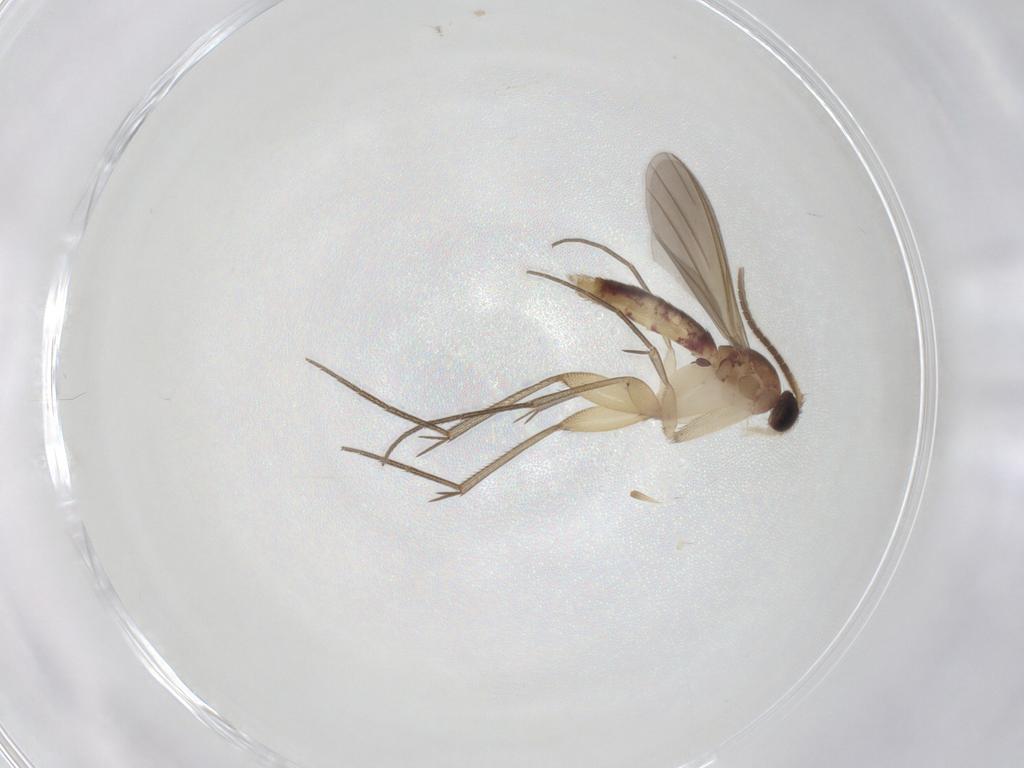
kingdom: Animalia
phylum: Arthropoda
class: Insecta
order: Diptera
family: Mycetophilidae
